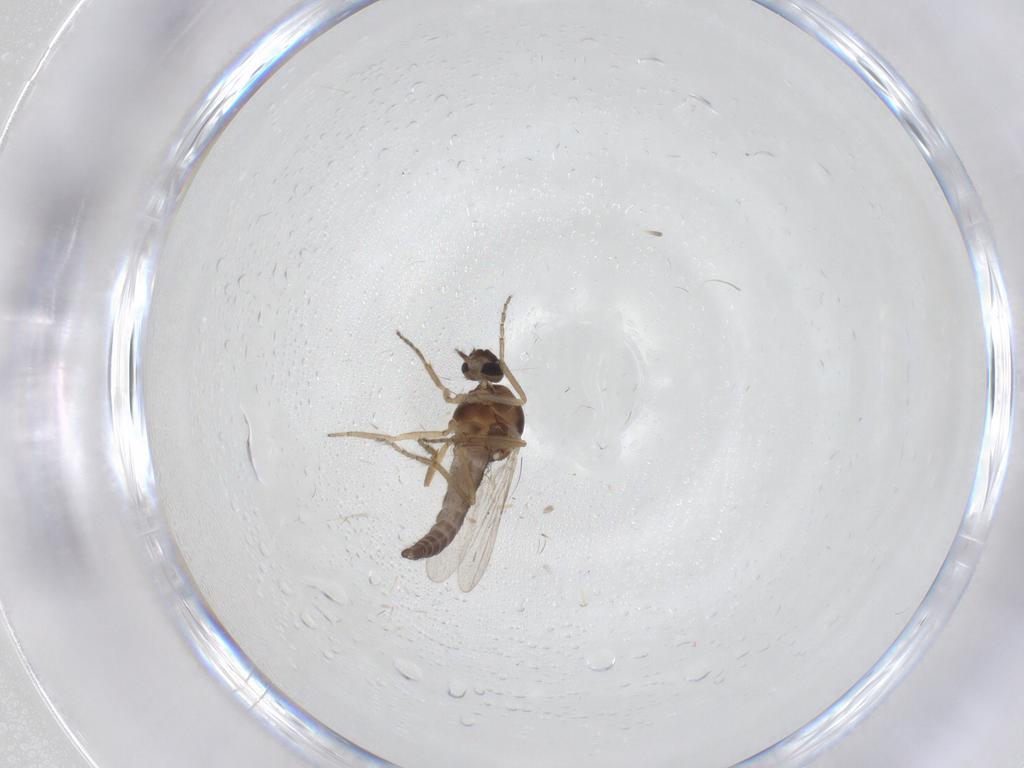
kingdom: Animalia
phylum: Arthropoda
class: Insecta
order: Diptera
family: Ceratopogonidae
